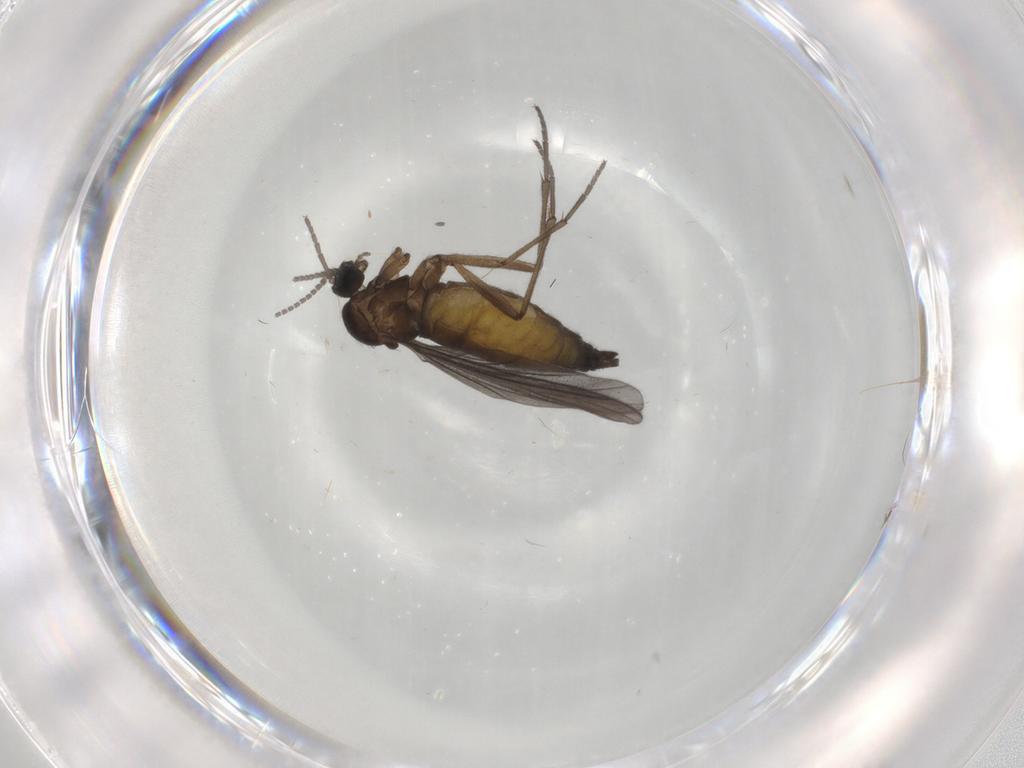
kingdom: Animalia
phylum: Arthropoda
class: Insecta
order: Diptera
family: Sciaridae
